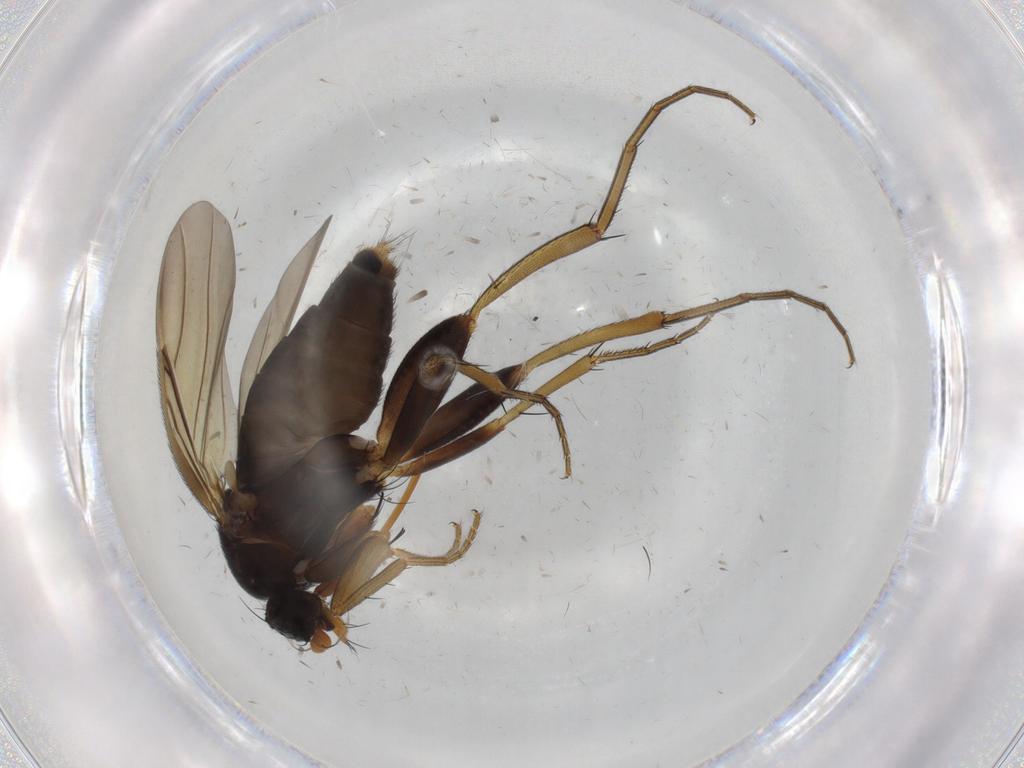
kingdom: Animalia
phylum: Arthropoda
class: Insecta
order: Diptera
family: Phoridae
